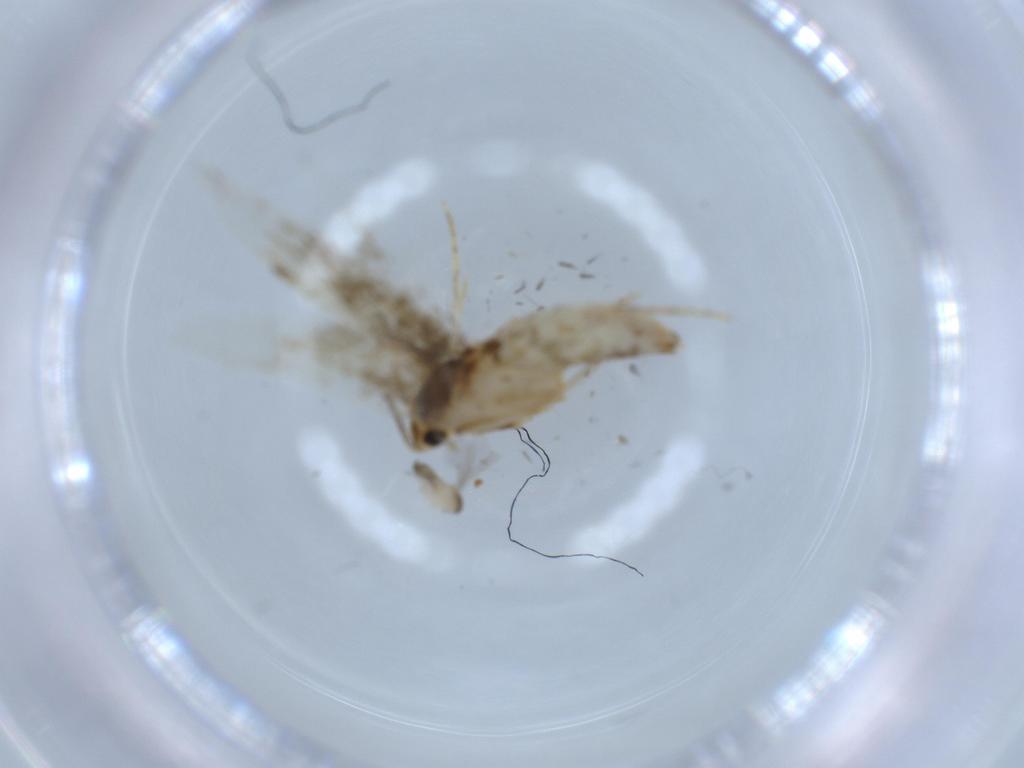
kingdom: Animalia
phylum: Arthropoda
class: Insecta
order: Lepidoptera
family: Tineidae
